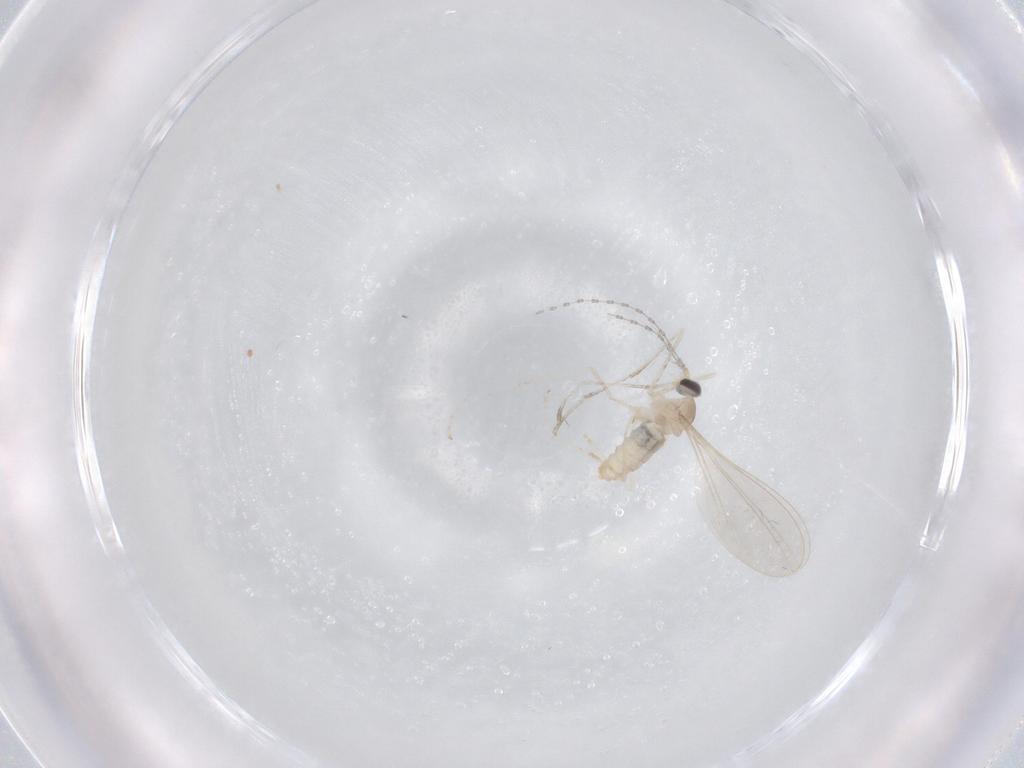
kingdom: Animalia
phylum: Arthropoda
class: Insecta
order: Diptera
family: Cecidomyiidae
